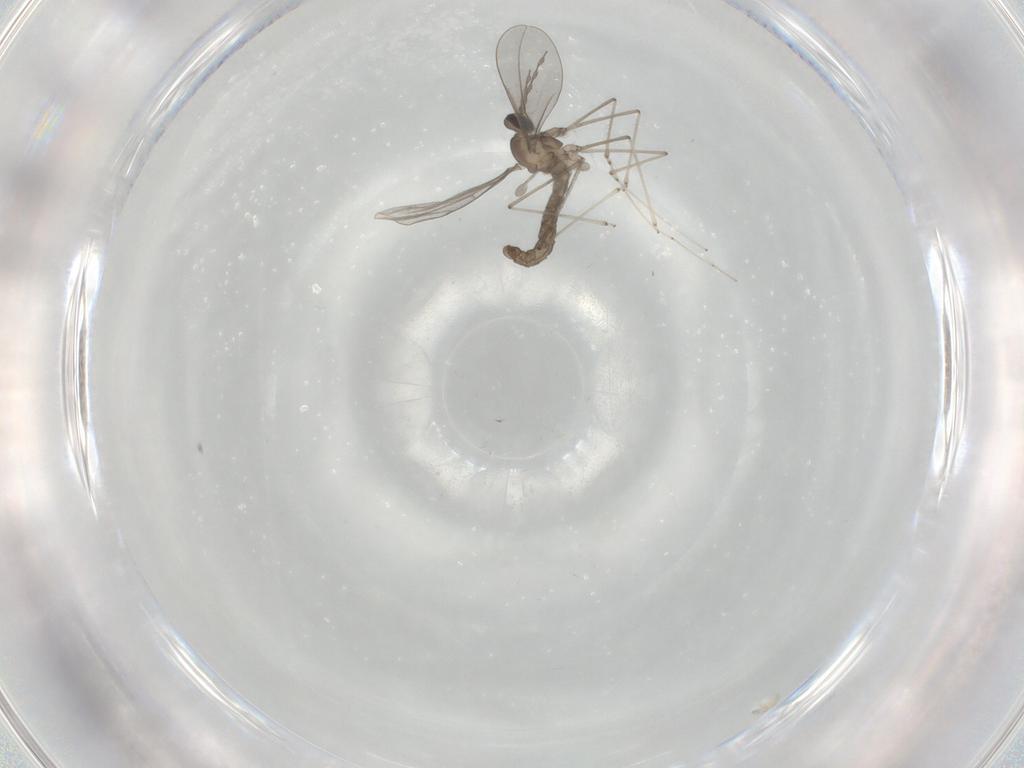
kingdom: Animalia
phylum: Arthropoda
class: Insecta
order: Diptera
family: Cecidomyiidae
